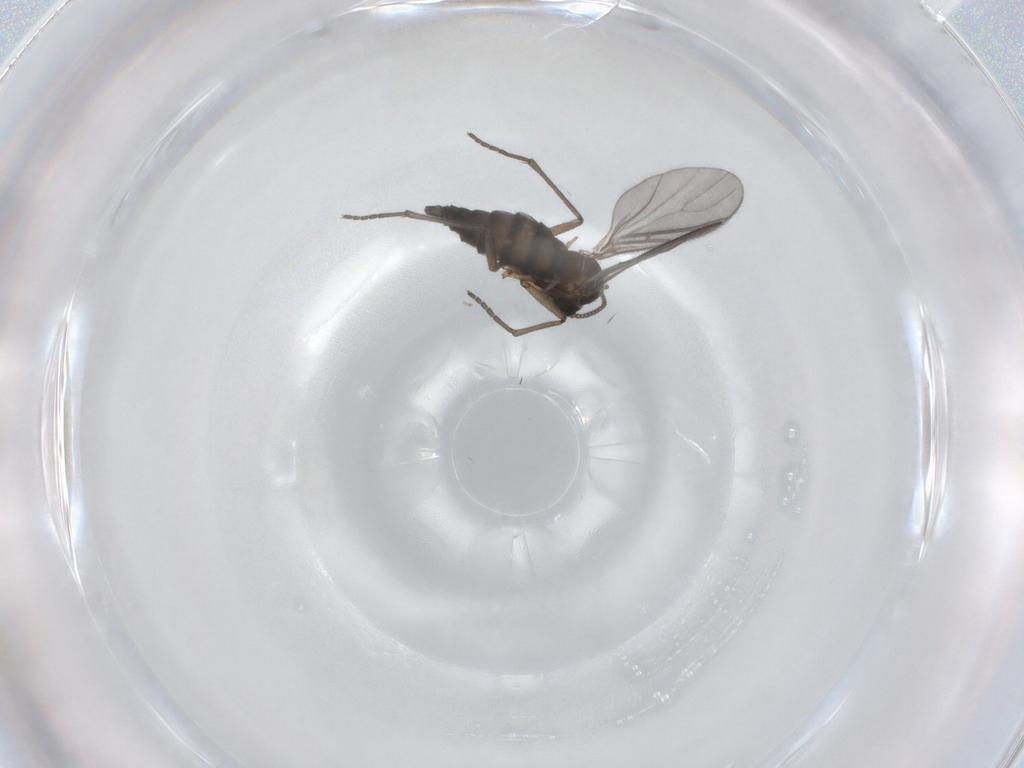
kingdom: Animalia
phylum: Arthropoda
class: Insecta
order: Diptera
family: Sciaridae
